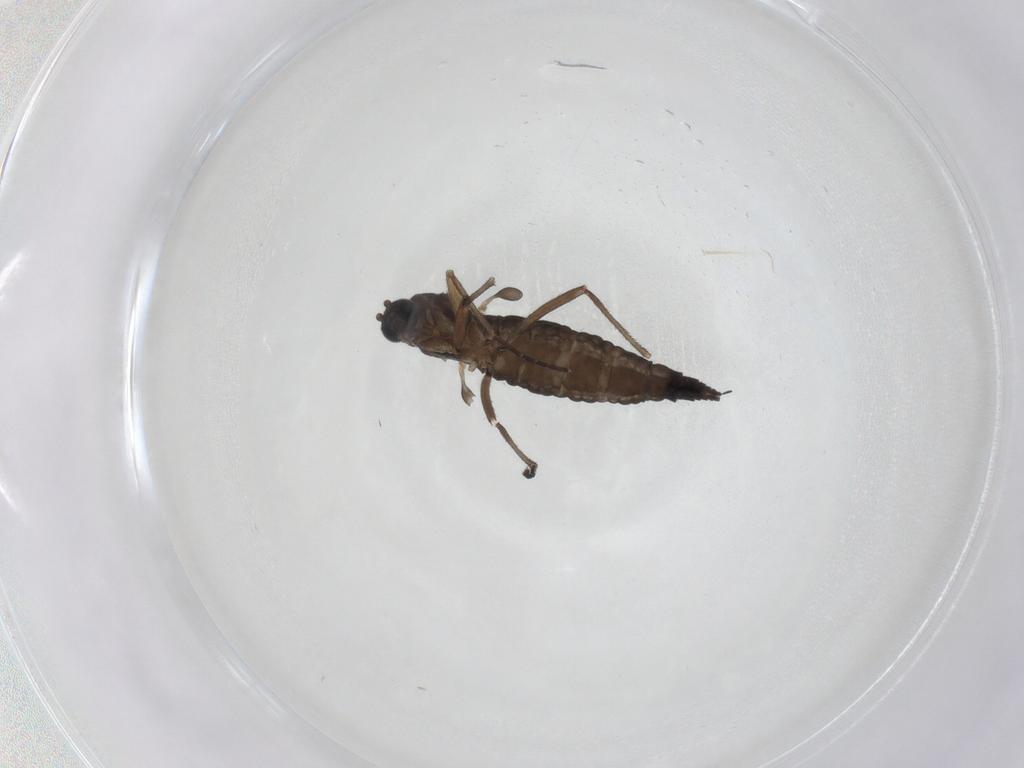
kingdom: Animalia
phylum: Arthropoda
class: Insecta
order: Diptera
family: Sciaridae
